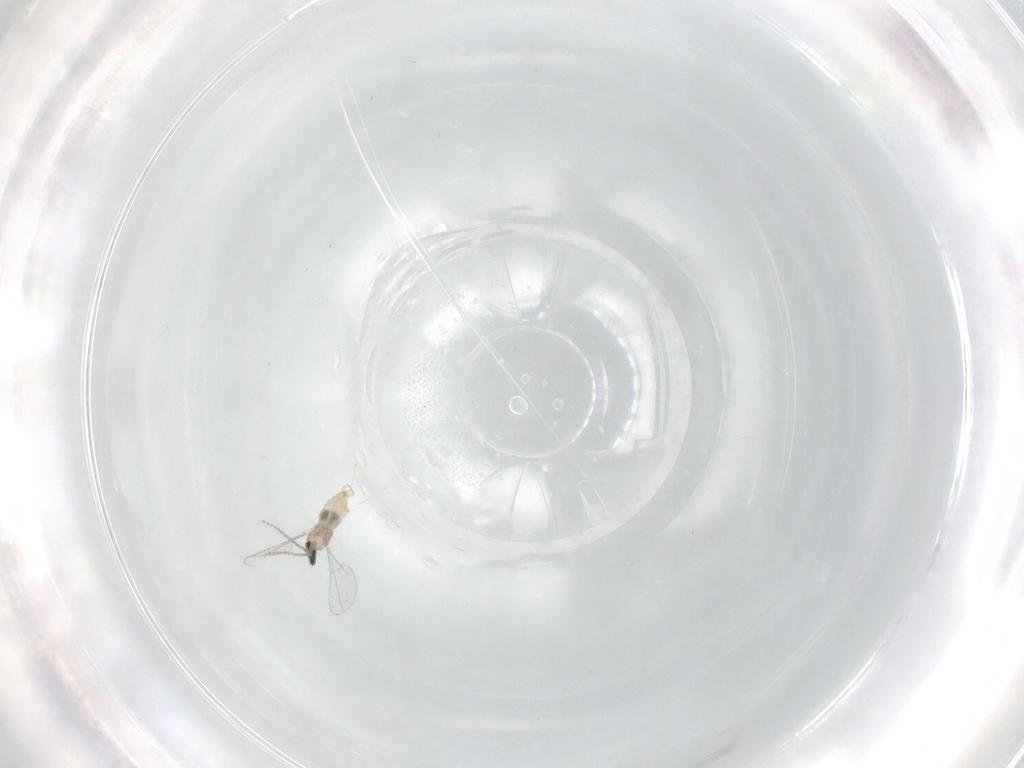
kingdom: Animalia
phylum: Arthropoda
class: Insecta
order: Diptera
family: Cecidomyiidae
